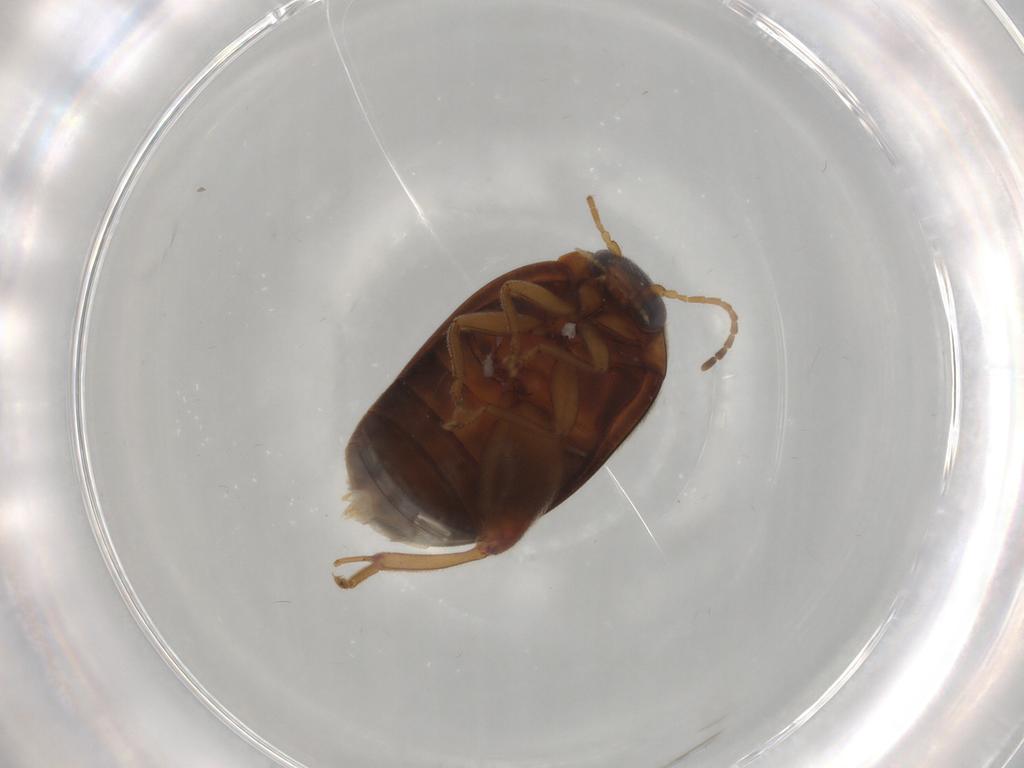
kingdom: Animalia
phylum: Arthropoda
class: Insecta
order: Coleoptera
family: Scirtidae
